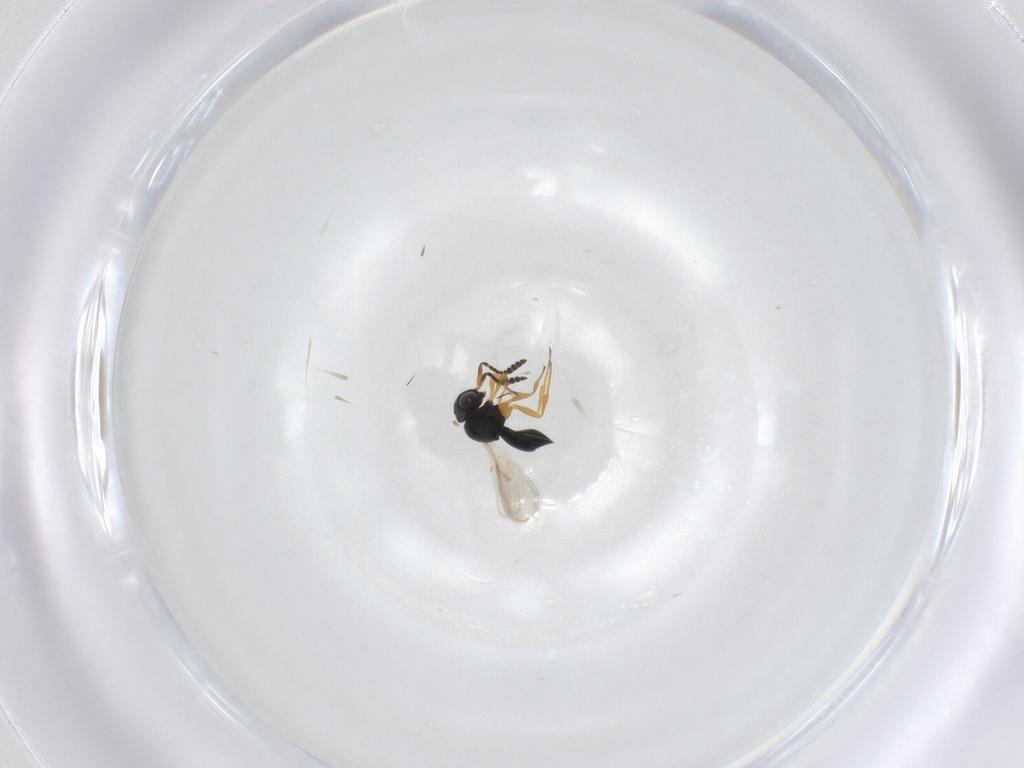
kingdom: Animalia
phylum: Arthropoda
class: Insecta
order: Hymenoptera
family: Scelionidae
